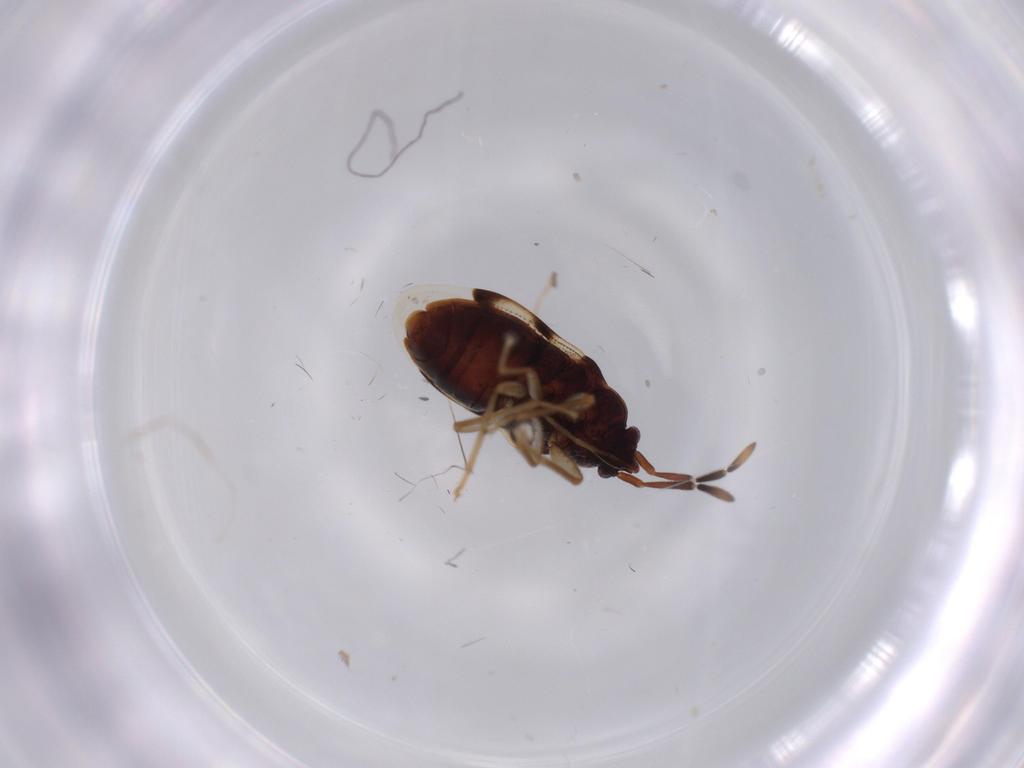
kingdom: Animalia
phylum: Arthropoda
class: Insecta
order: Hemiptera
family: Rhyparochromidae
